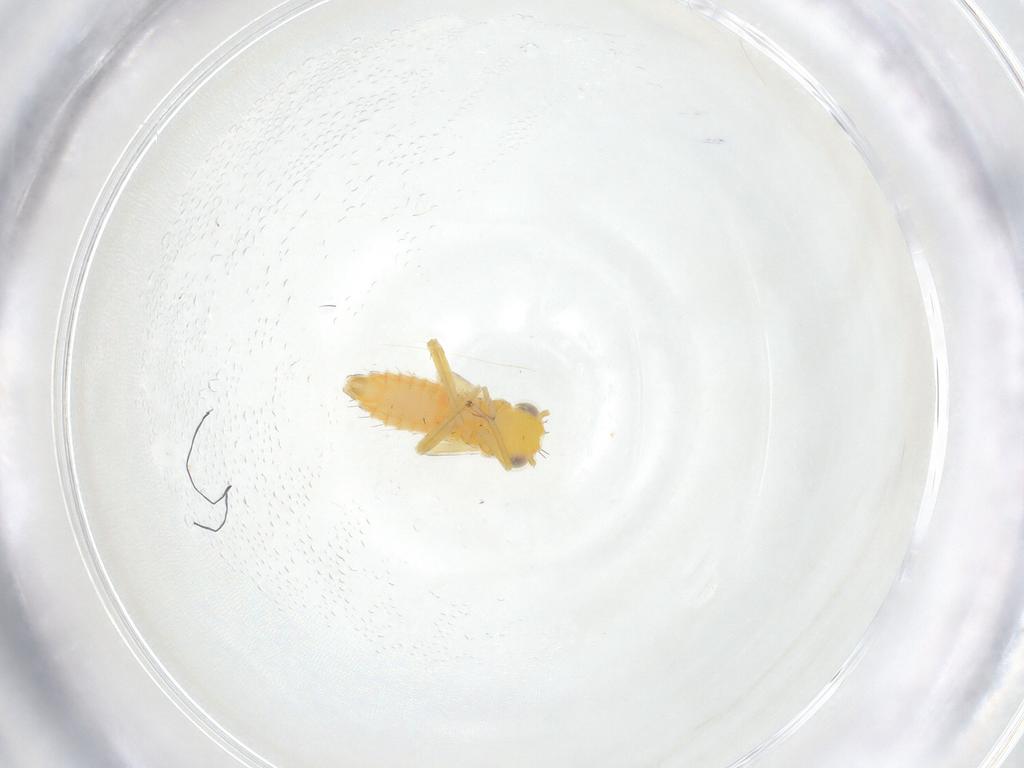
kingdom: Animalia
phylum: Arthropoda
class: Insecta
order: Hemiptera
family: Cicadellidae
